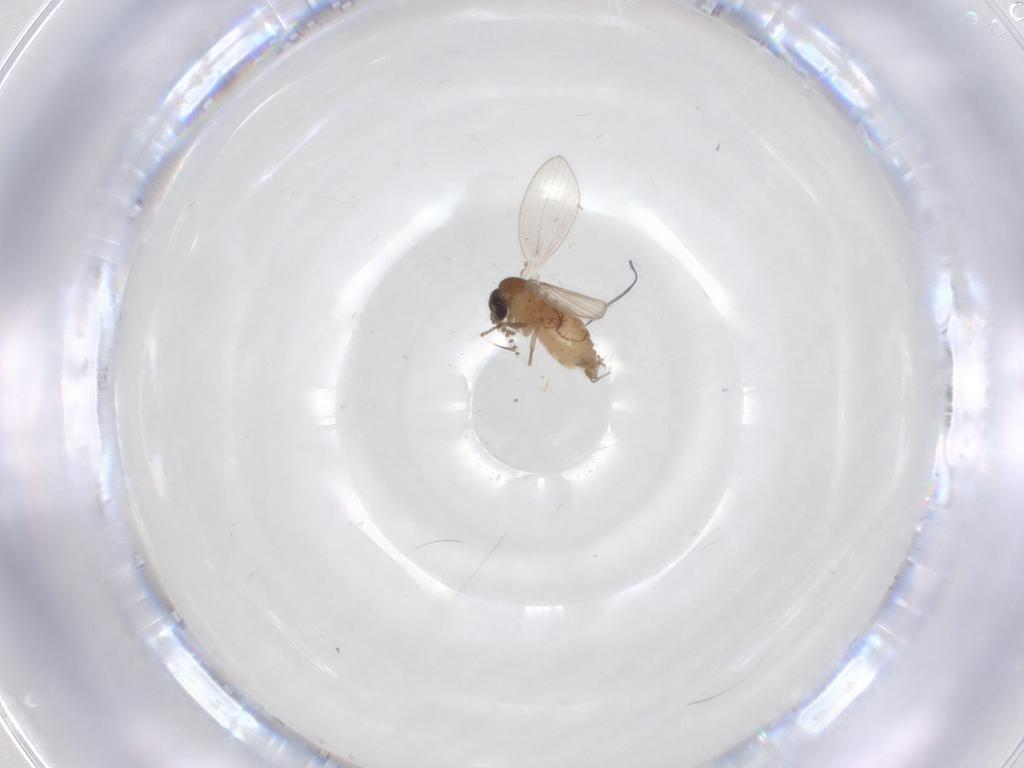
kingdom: Animalia
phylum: Arthropoda
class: Insecta
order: Diptera
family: Psychodidae
